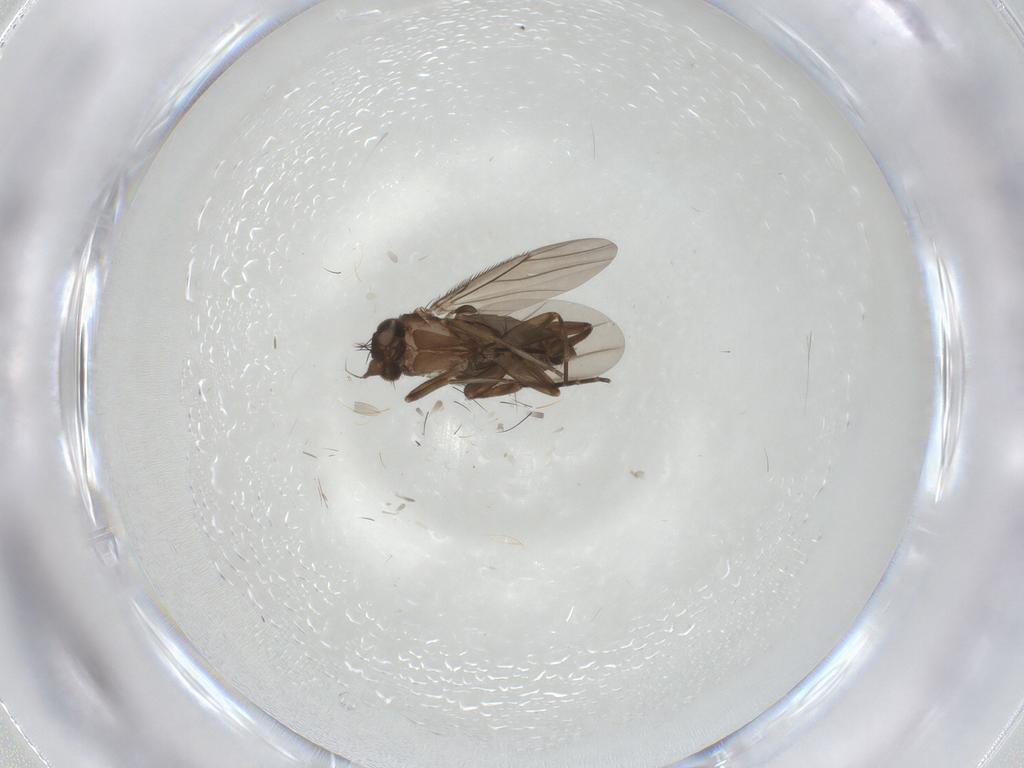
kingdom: Animalia
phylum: Arthropoda
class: Insecta
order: Diptera
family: Phoridae
